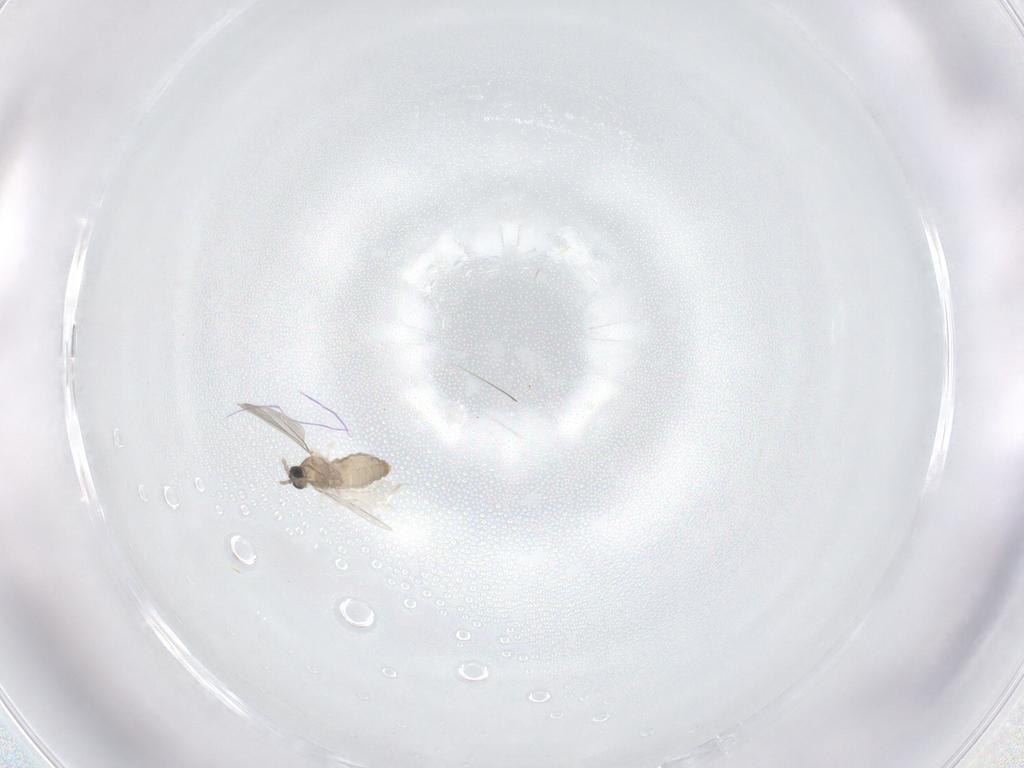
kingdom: Animalia
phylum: Arthropoda
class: Insecta
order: Diptera
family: Cecidomyiidae
